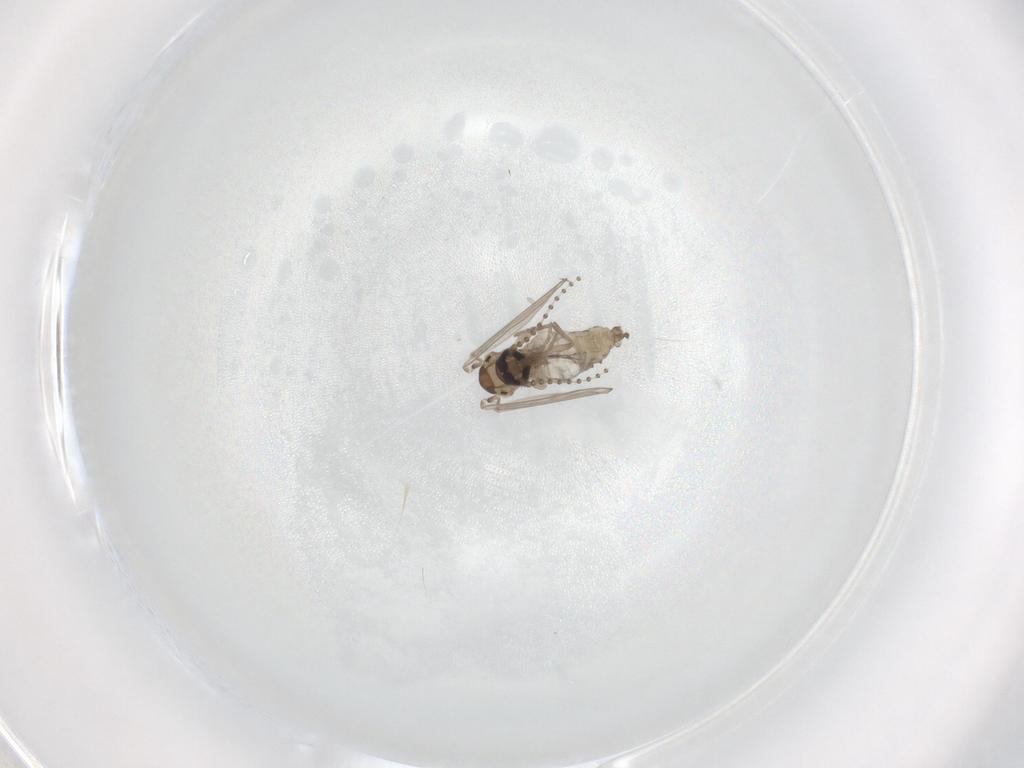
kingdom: Animalia
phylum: Arthropoda
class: Insecta
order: Diptera
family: Psychodidae
